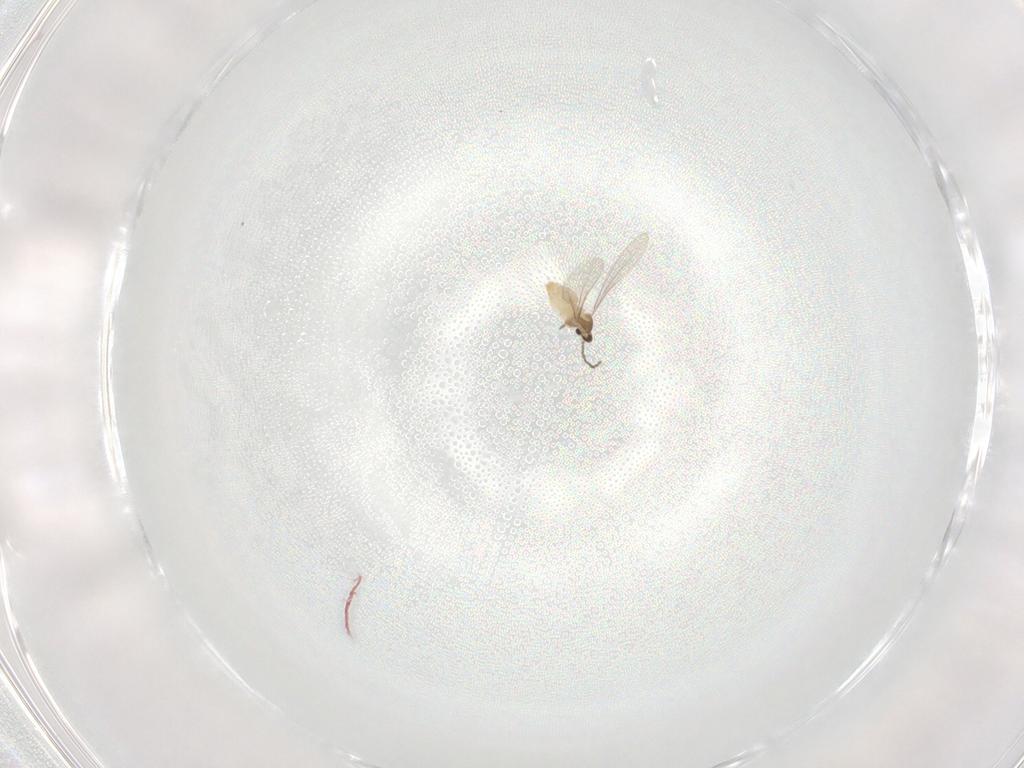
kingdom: Animalia
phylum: Arthropoda
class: Insecta
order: Diptera
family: Cecidomyiidae
